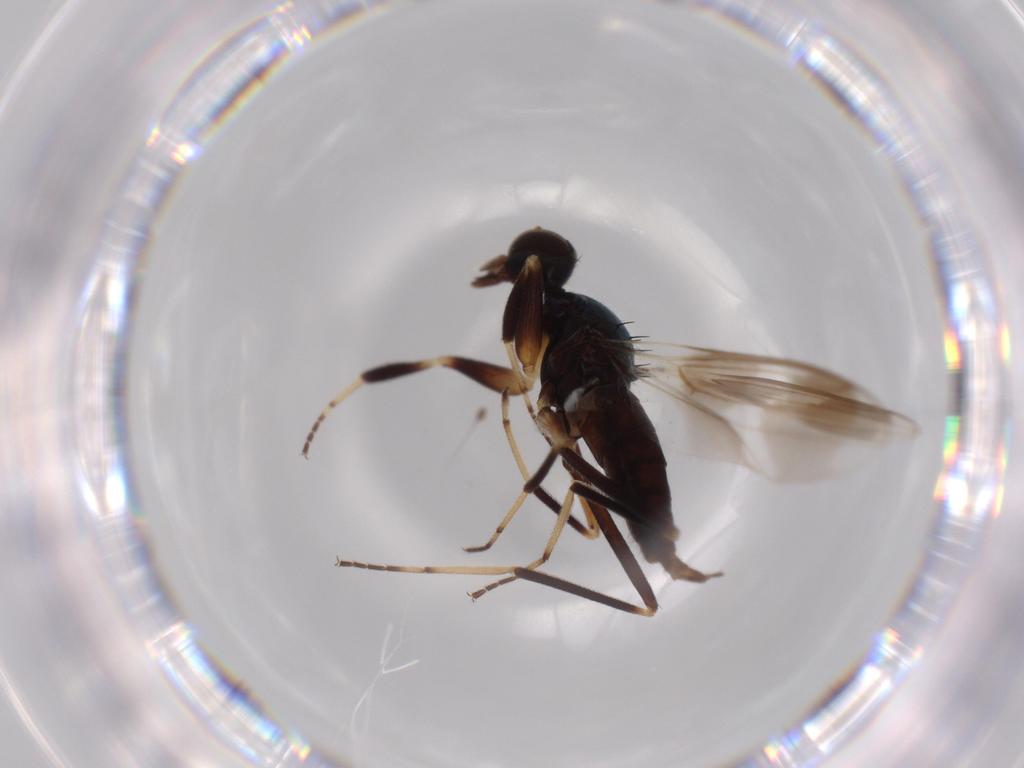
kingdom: Animalia
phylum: Arthropoda
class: Insecta
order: Diptera
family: Hybotidae
